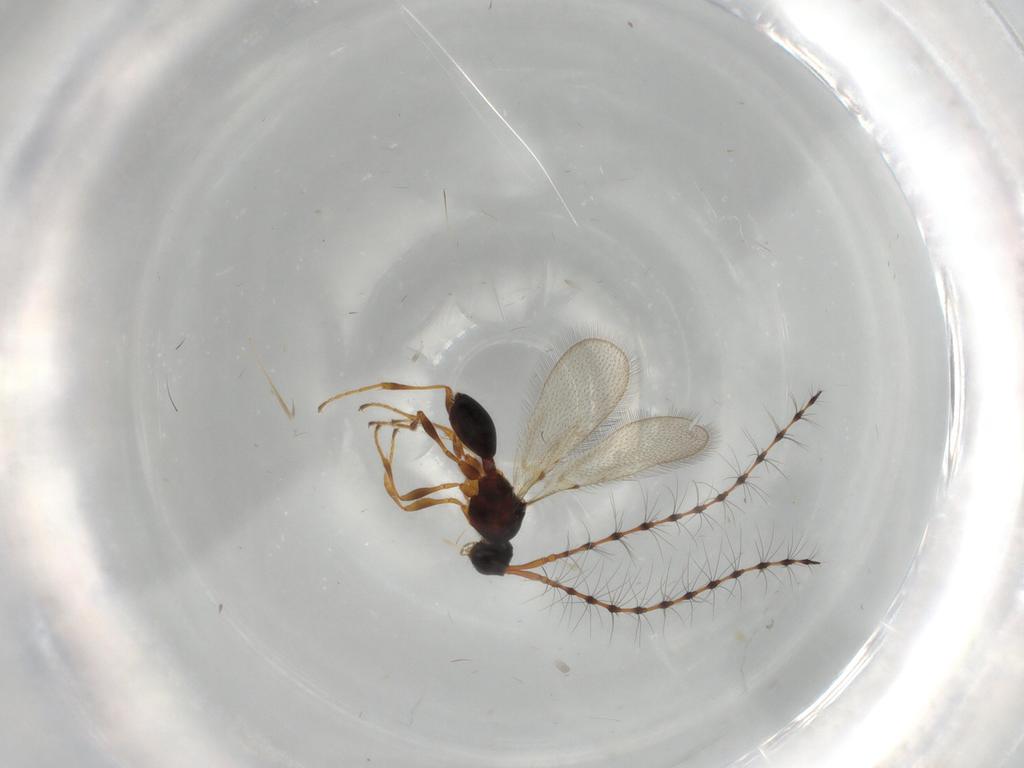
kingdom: Animalia
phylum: Arthropoda
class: Insecta
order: Hymenoptera
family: Diapriidae
